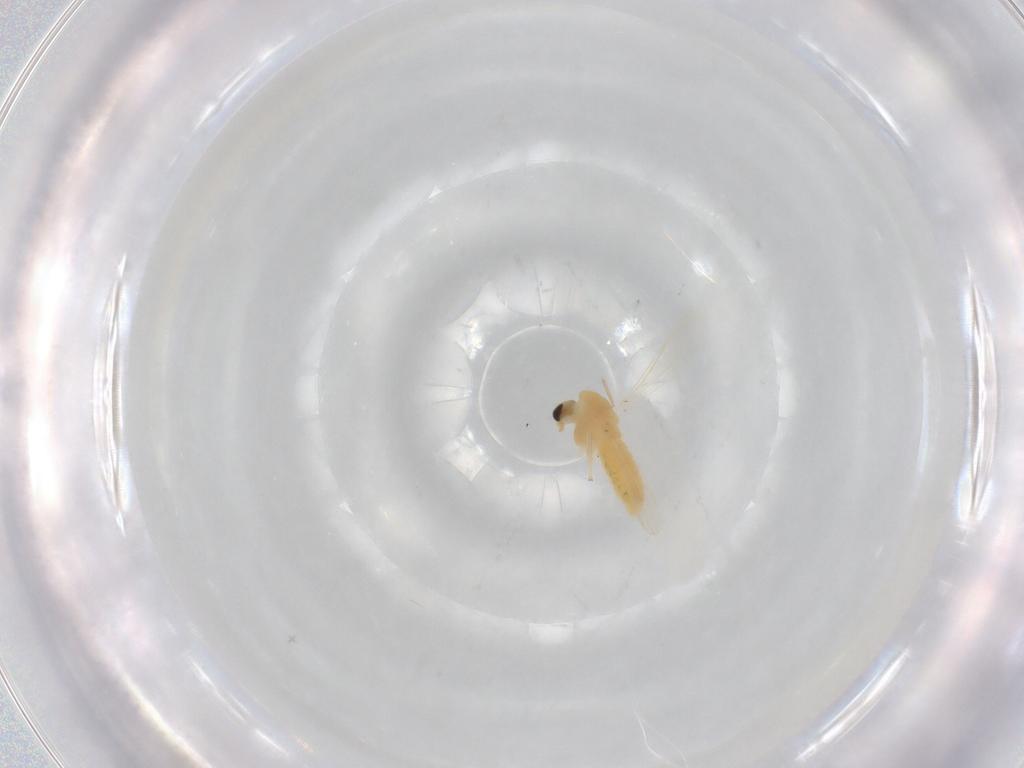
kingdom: Animalia
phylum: Arthropoda
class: Insecta
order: Diptera
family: Chironomidae
